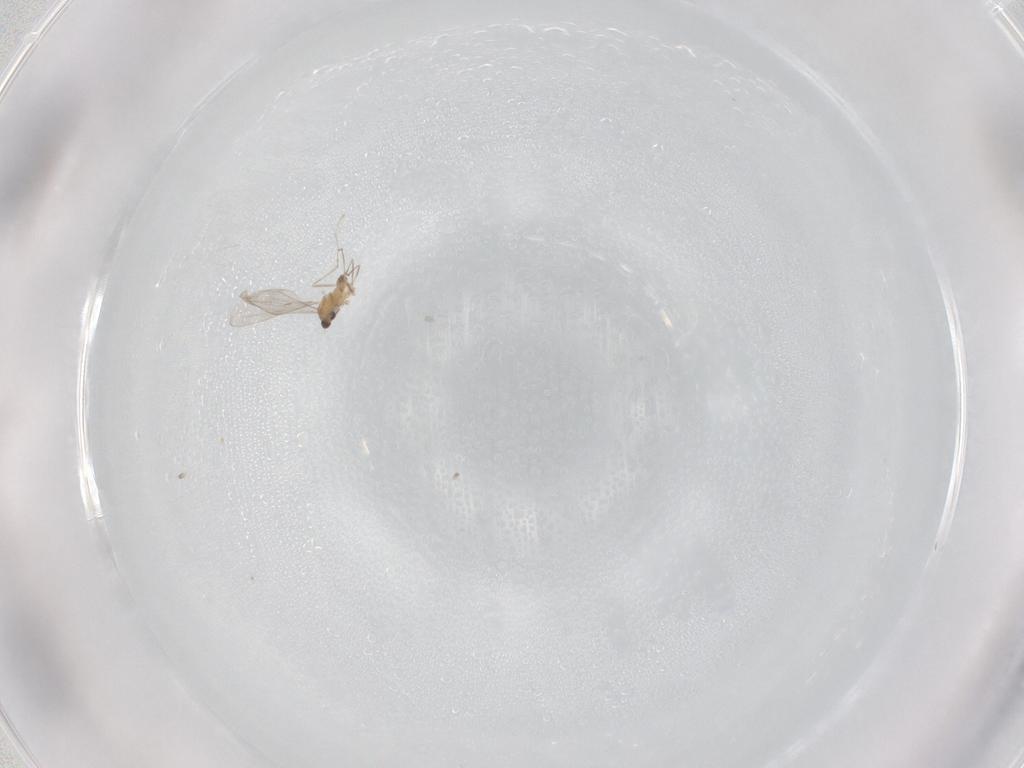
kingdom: Animalia
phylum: Arthropoda
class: Insecta
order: Diptera
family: Cecidomyiidae
